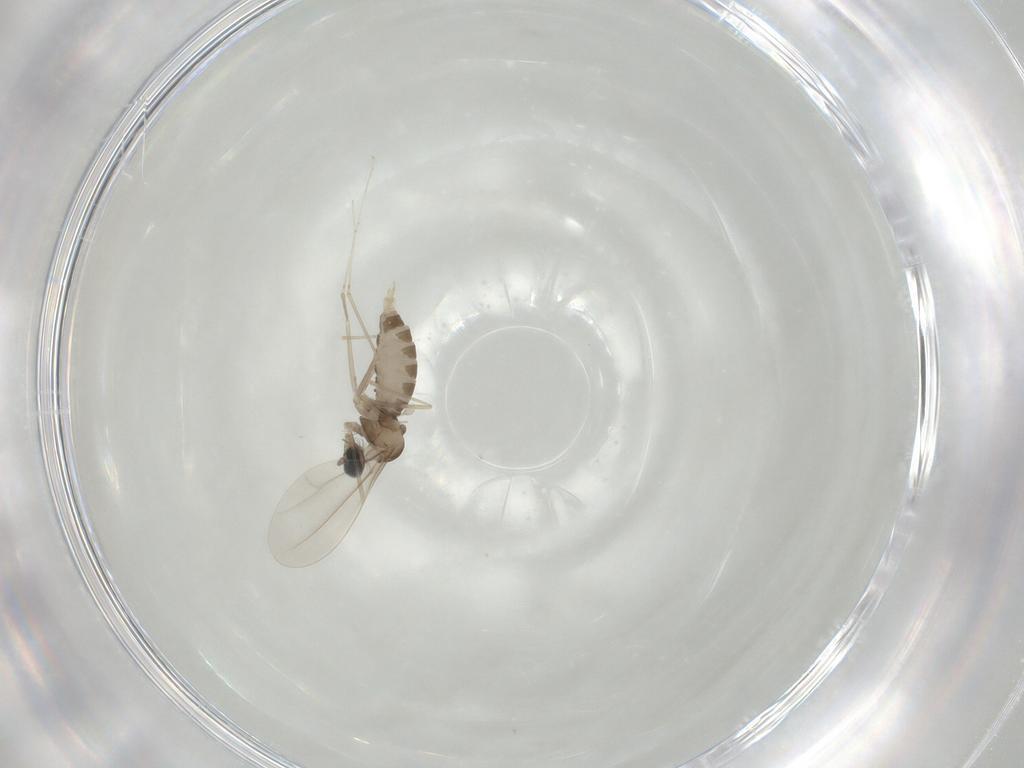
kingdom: Animalia
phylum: Arthropoda
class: Insecta
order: Diptera
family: Cecidomyiidae
